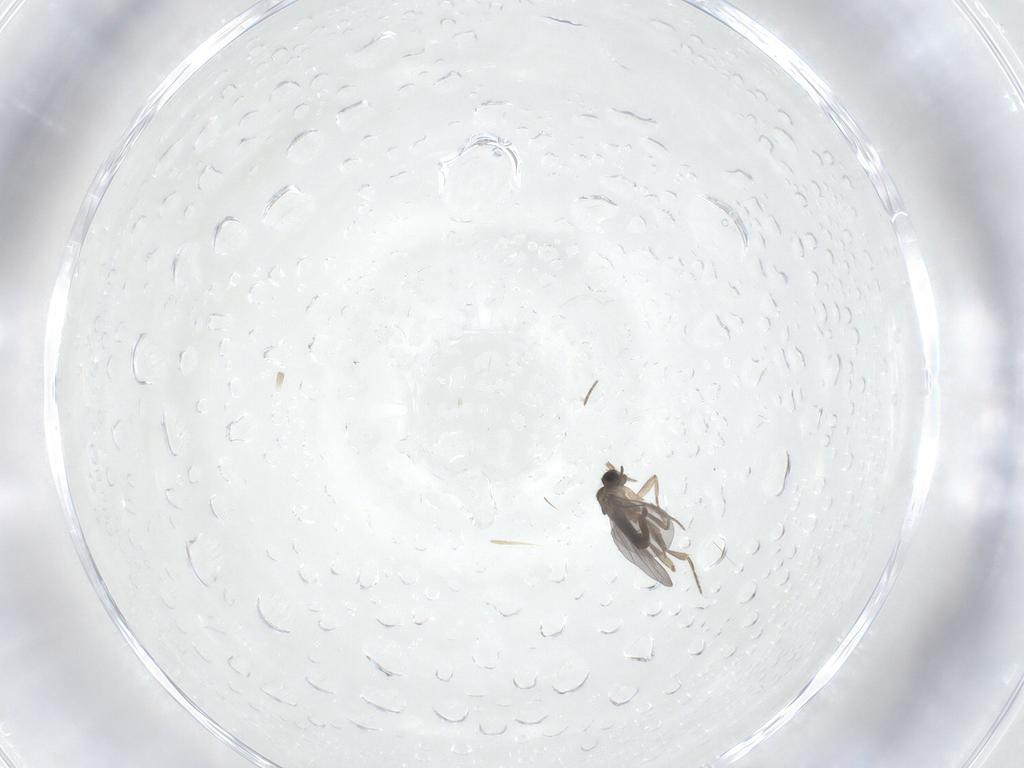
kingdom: Animalia
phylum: Arthropoda
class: Insecta
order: Diptera
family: Phoridae
